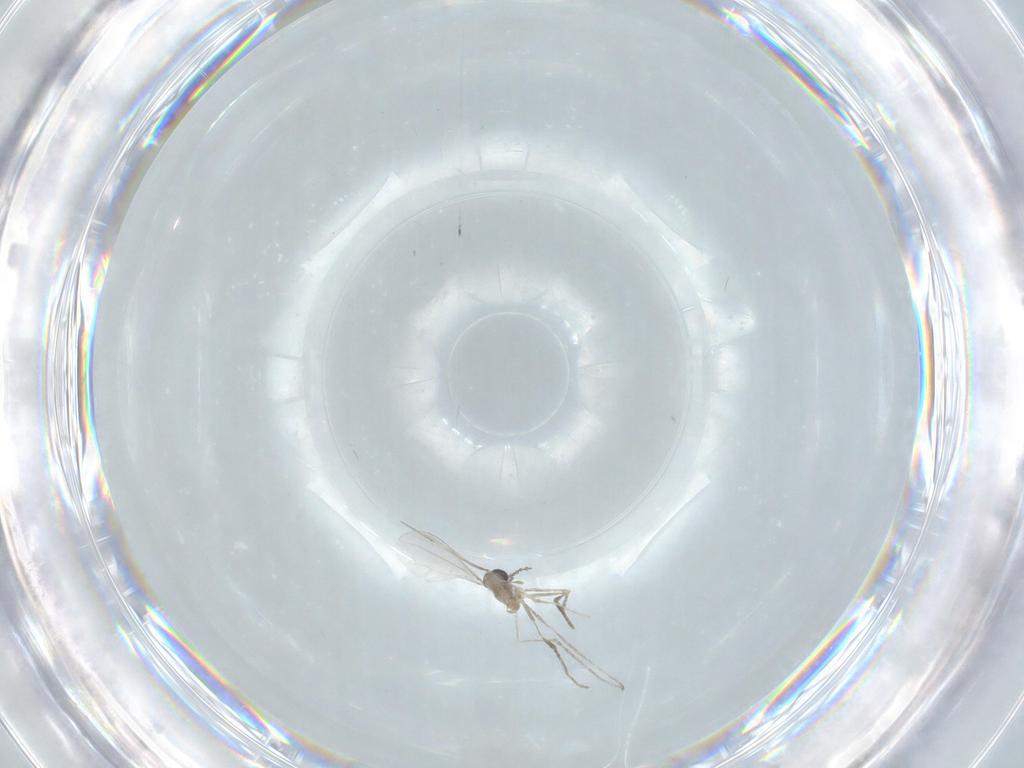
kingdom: Animalia
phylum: Arthropoda
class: Insecta
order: Diptera
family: Cecidomyiidae
